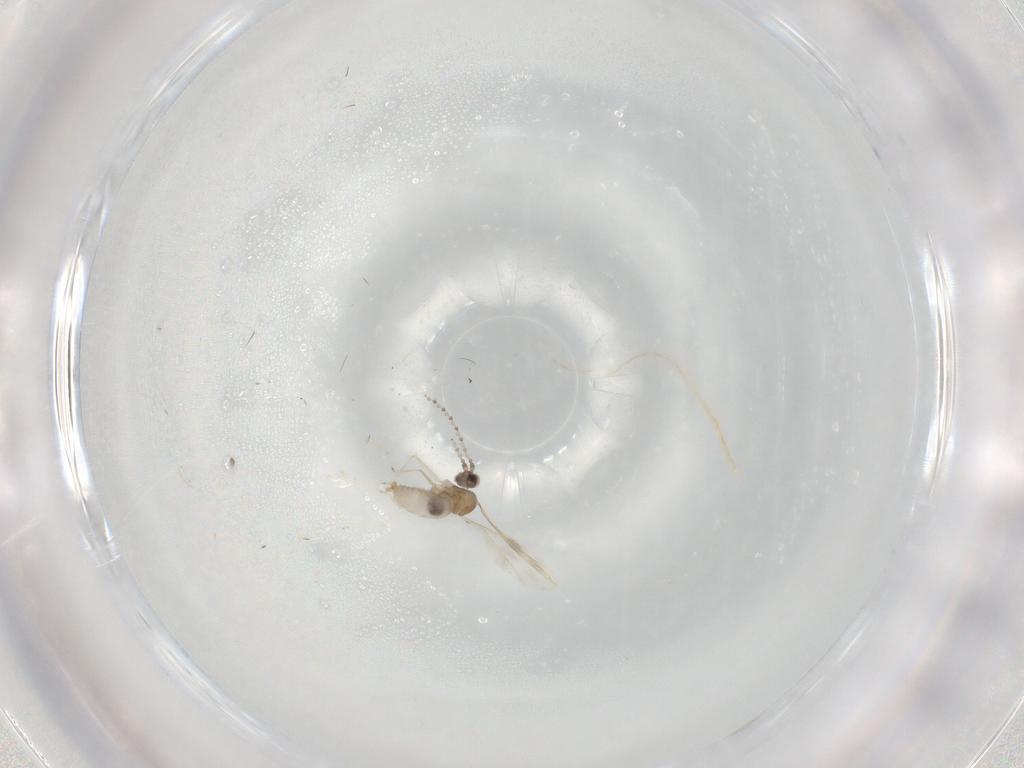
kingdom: Animalia
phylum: Arthropoda
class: Insecta
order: Diptera
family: Cecidomyiidae
